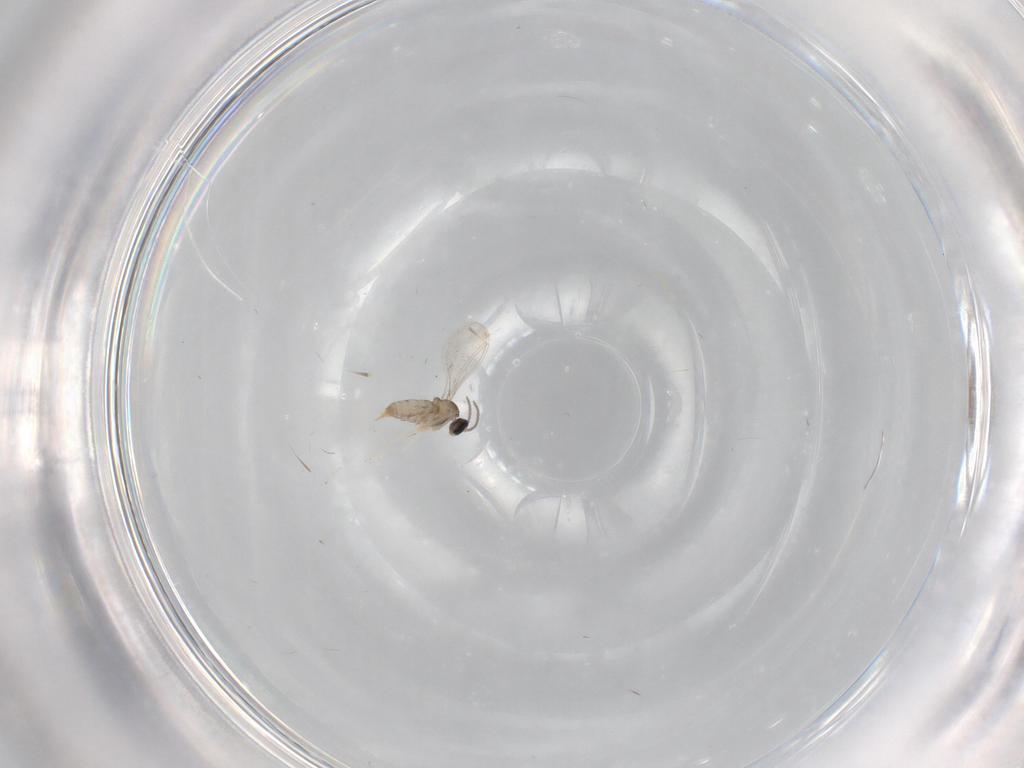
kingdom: Animalia
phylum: Arthropoda
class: Insecta
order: Diptera
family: Cecidomyiidae
